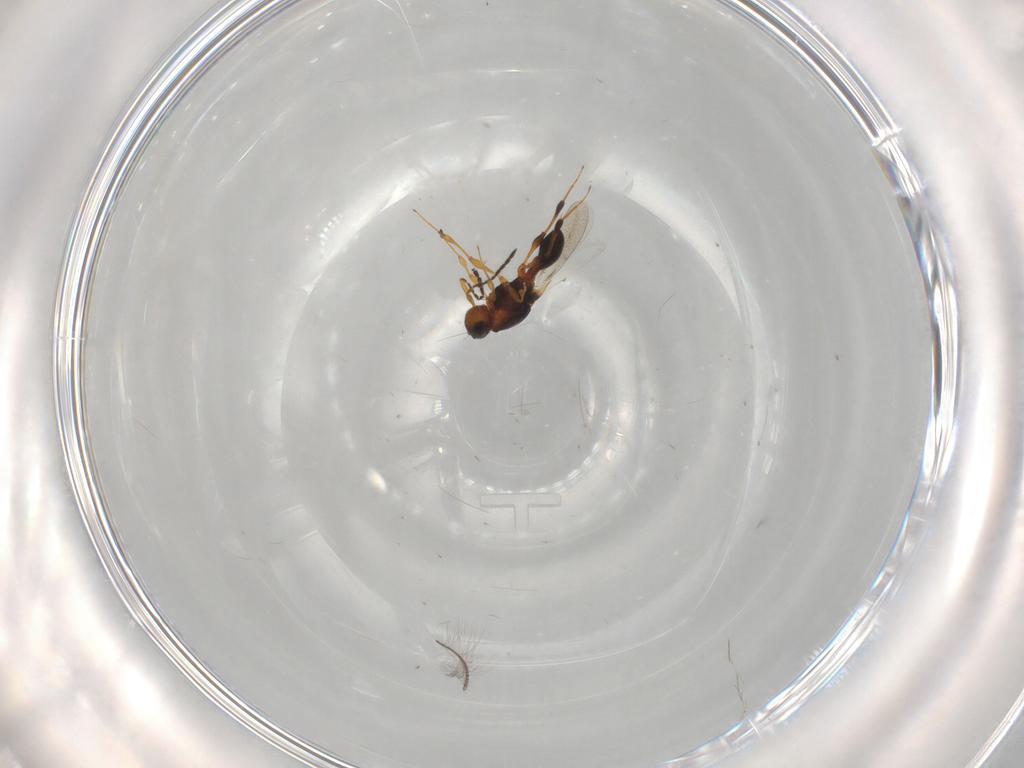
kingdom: Animalia
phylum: Arthropoda
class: Insecta
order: Hymenoptera
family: Platygastridae
